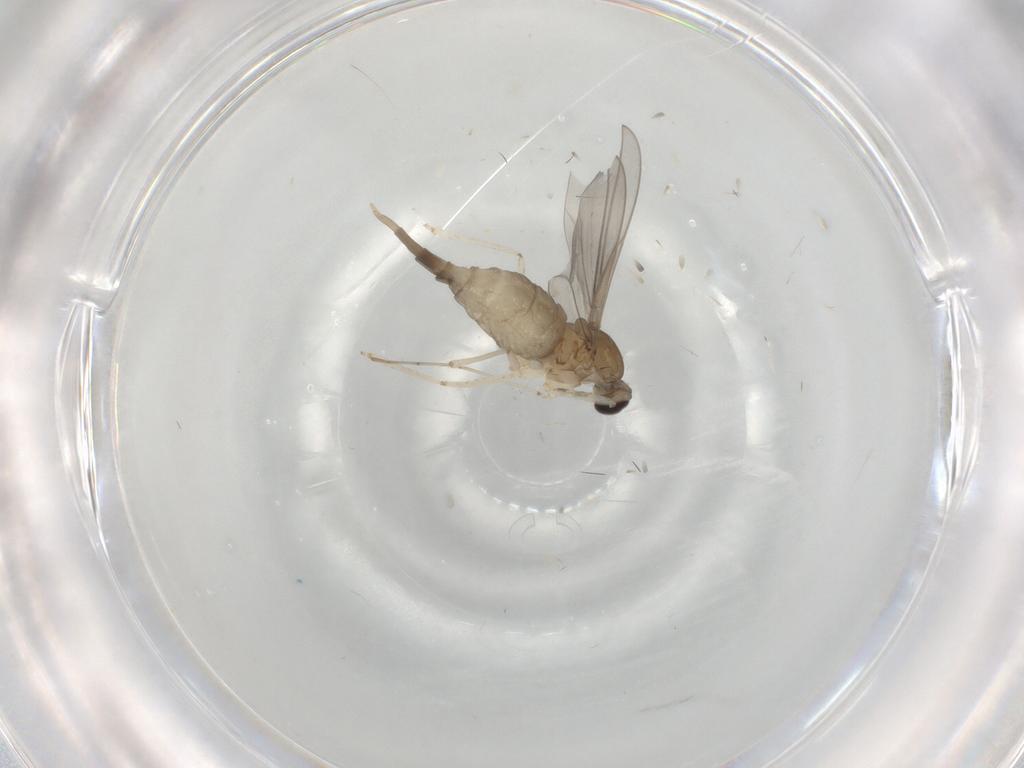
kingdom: Animalia
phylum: Arthropoda
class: Insecta
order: Diptera
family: Cecidomyiidae
